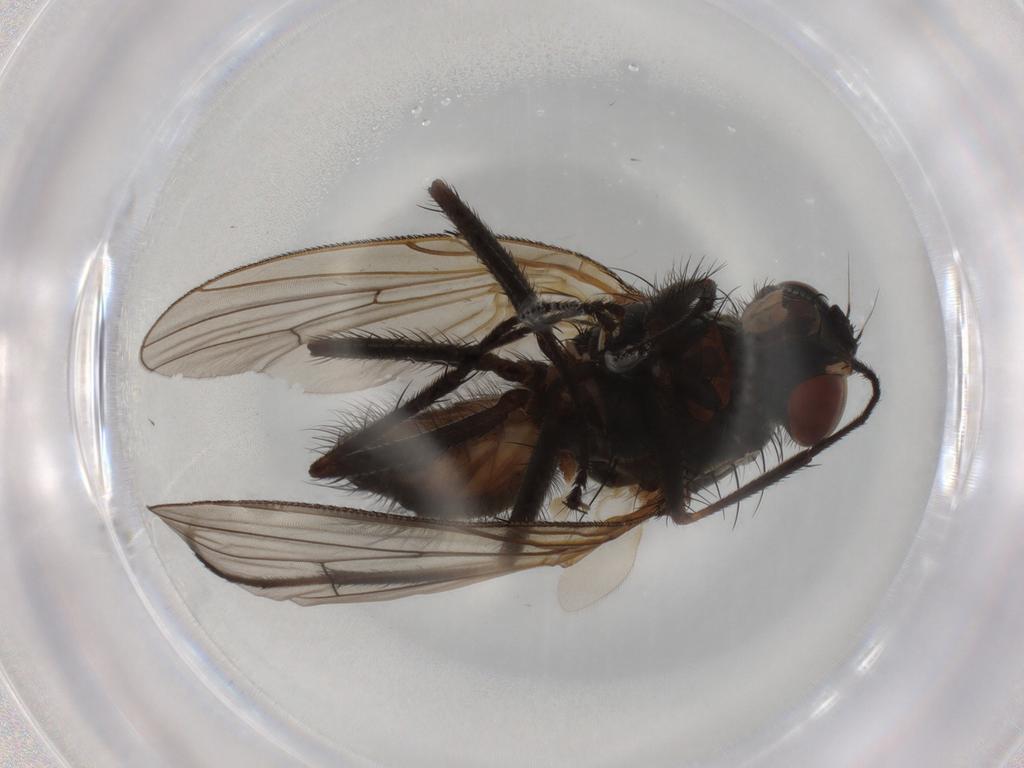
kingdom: Animalia
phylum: Arthropoda
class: Insecta
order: Diptera
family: Anthomyiidae
